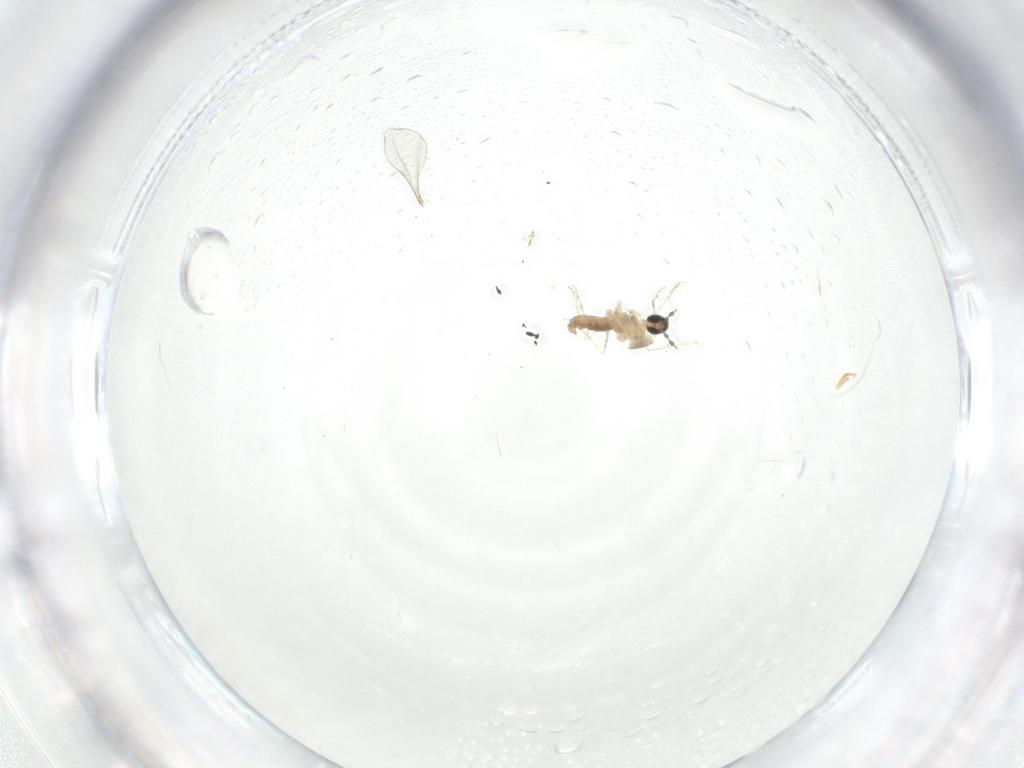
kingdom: Animalia
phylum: Arthropoda
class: Insecta
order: Diptera
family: Cecidomyiidae
